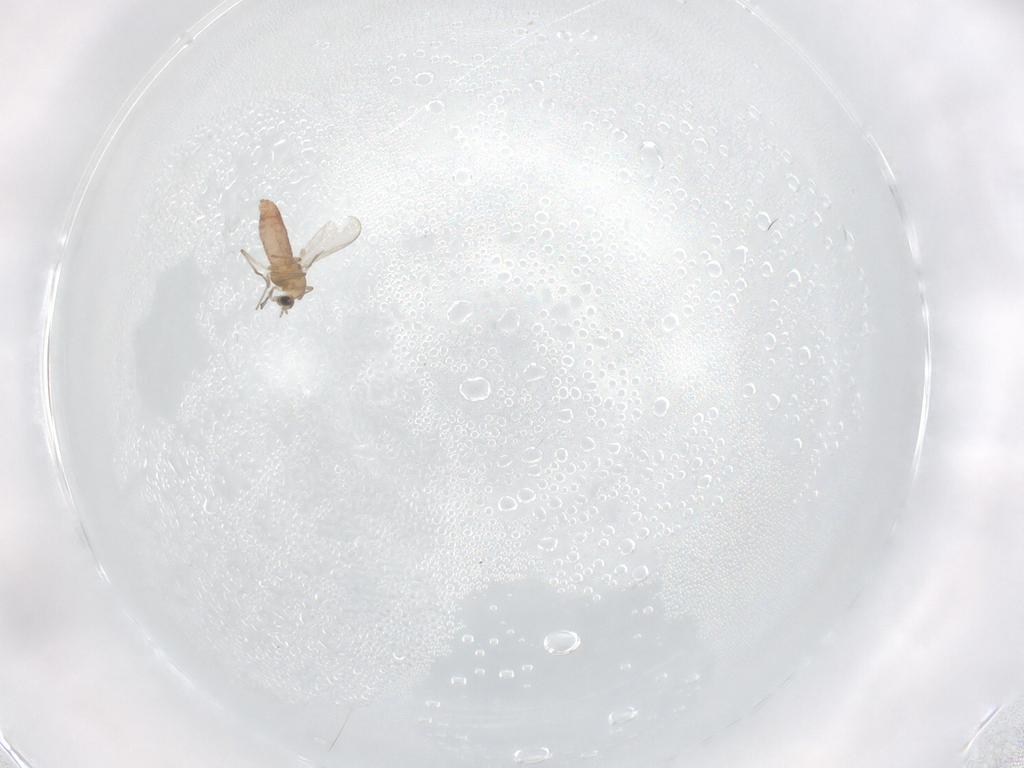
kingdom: Animalia
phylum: Arthropoda
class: Insecta
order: Diptera
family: Chironomidae
